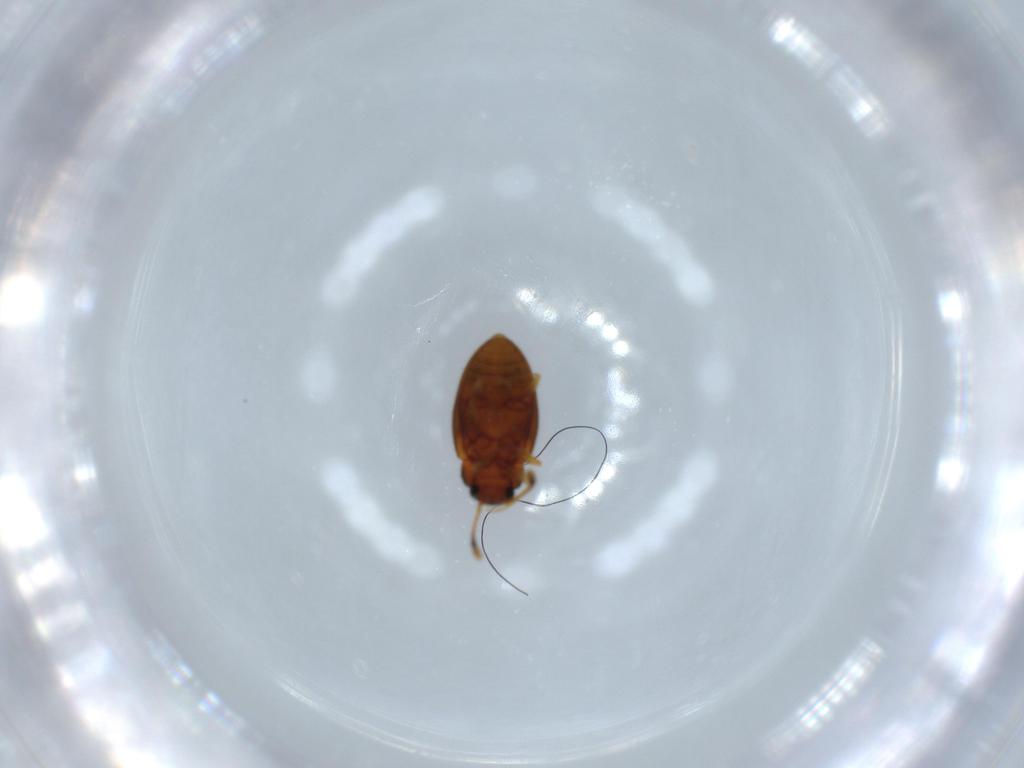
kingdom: Animalia
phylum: Arthropoda
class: Insecta
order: Coleoptera
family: Erotylidae
